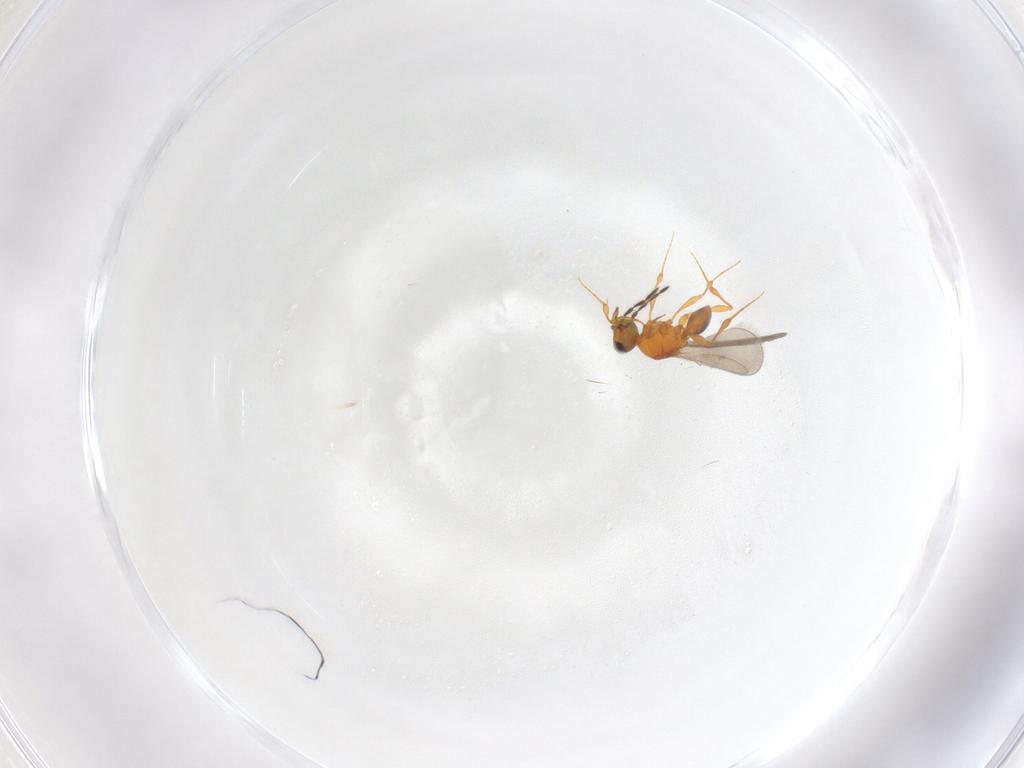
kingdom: Animalia
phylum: Arthropoda
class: Insecta
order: Hymenoptera
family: Platygastridae
